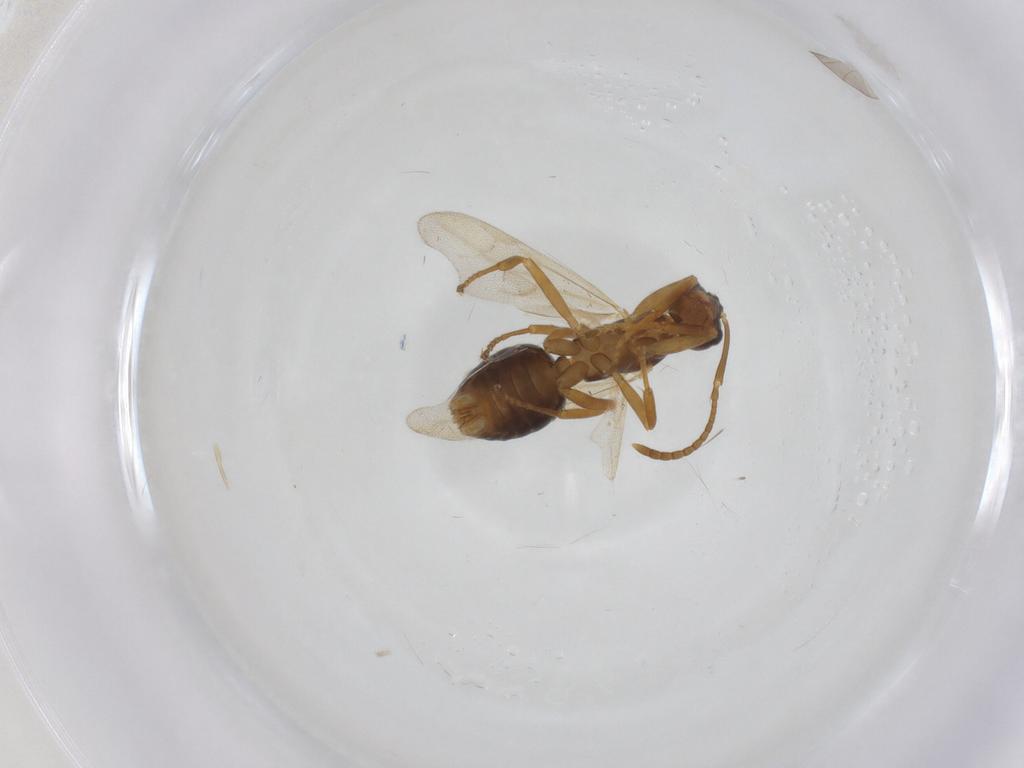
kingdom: Animalia
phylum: Arthropoda
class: Insecta
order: Hymenoptera
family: Formicidae
